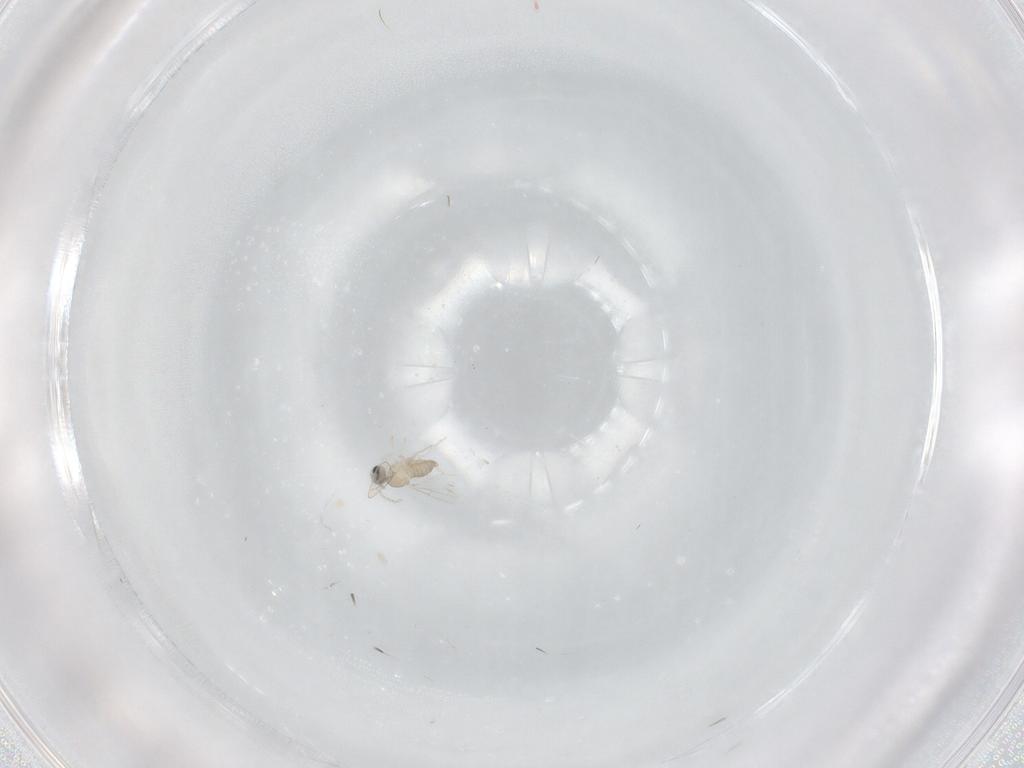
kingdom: Animalia
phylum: Arthropoda
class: Insecta
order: Diptera
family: Cecidomyiidae
